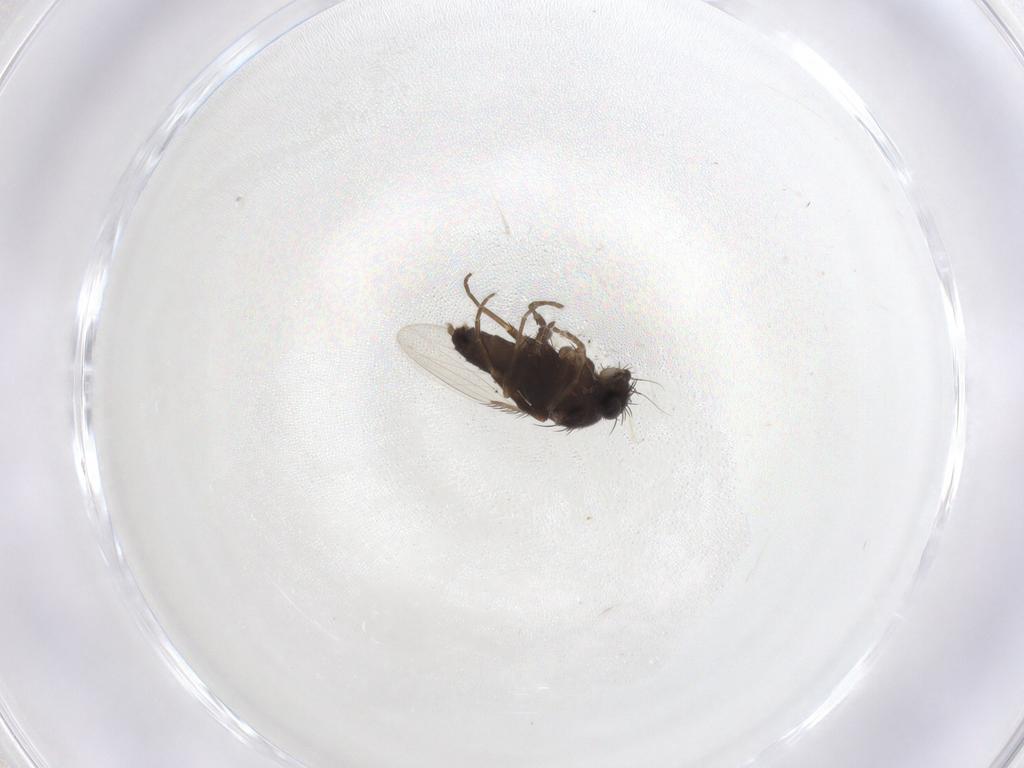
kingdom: Animalia
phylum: Arthropoda
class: Insecta
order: Diptera
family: Phoridae
